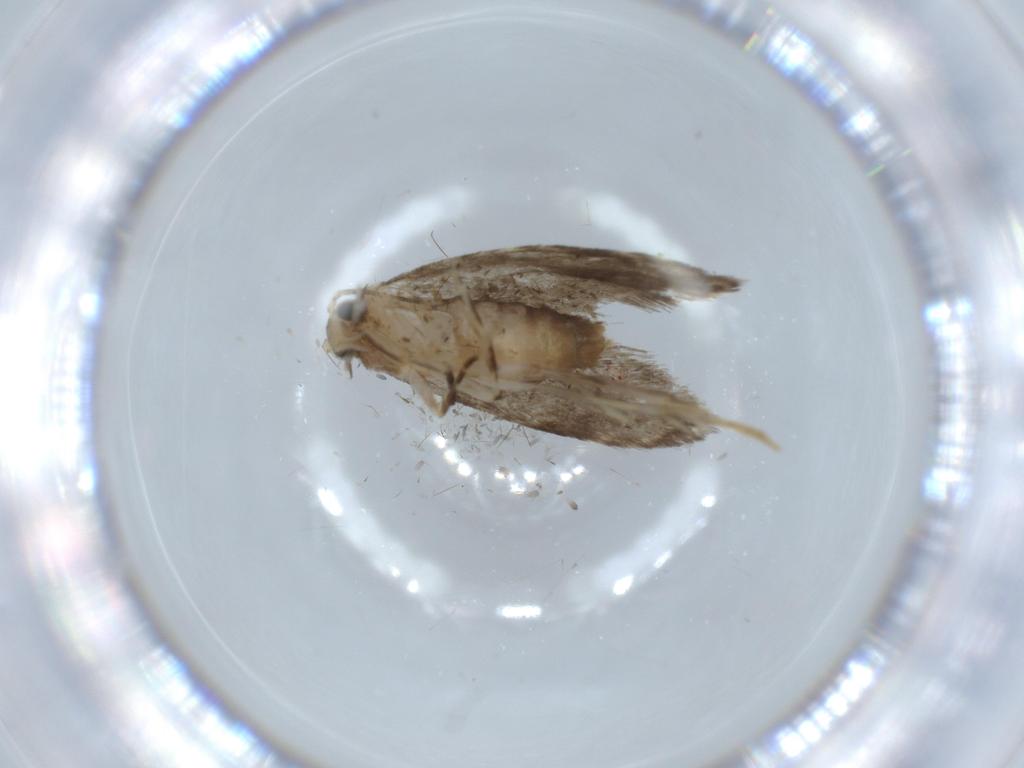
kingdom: Animalia
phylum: Arthropoda
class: Insecta
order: Lepidoptera
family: Tineidae
